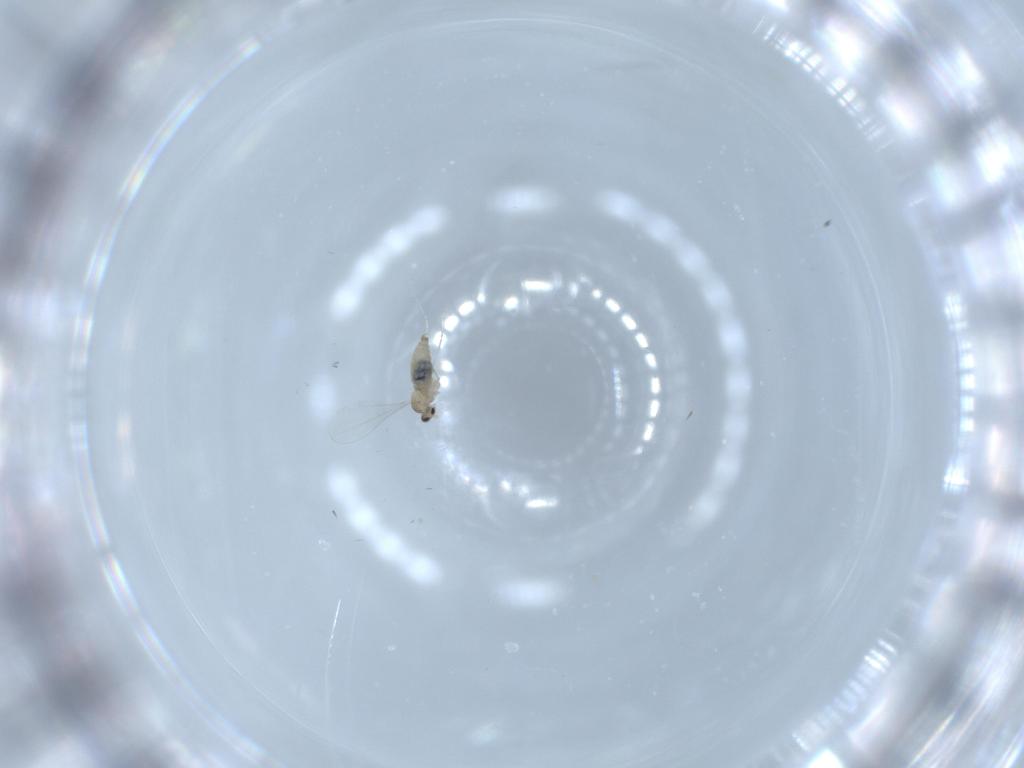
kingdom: Animalia
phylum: Arthropoda
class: Insecta
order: Diptera
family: Cecidomyiidae
